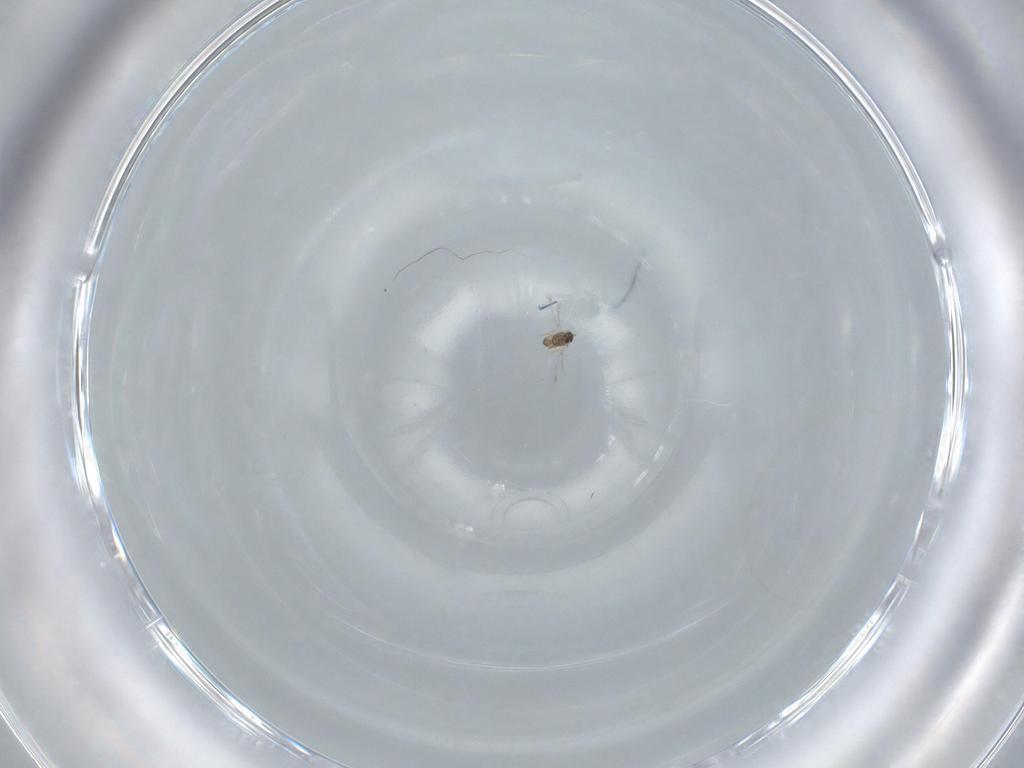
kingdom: Animalia
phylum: Arthropoda
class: Insecta
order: Hymenoptera
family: Mymaridae
